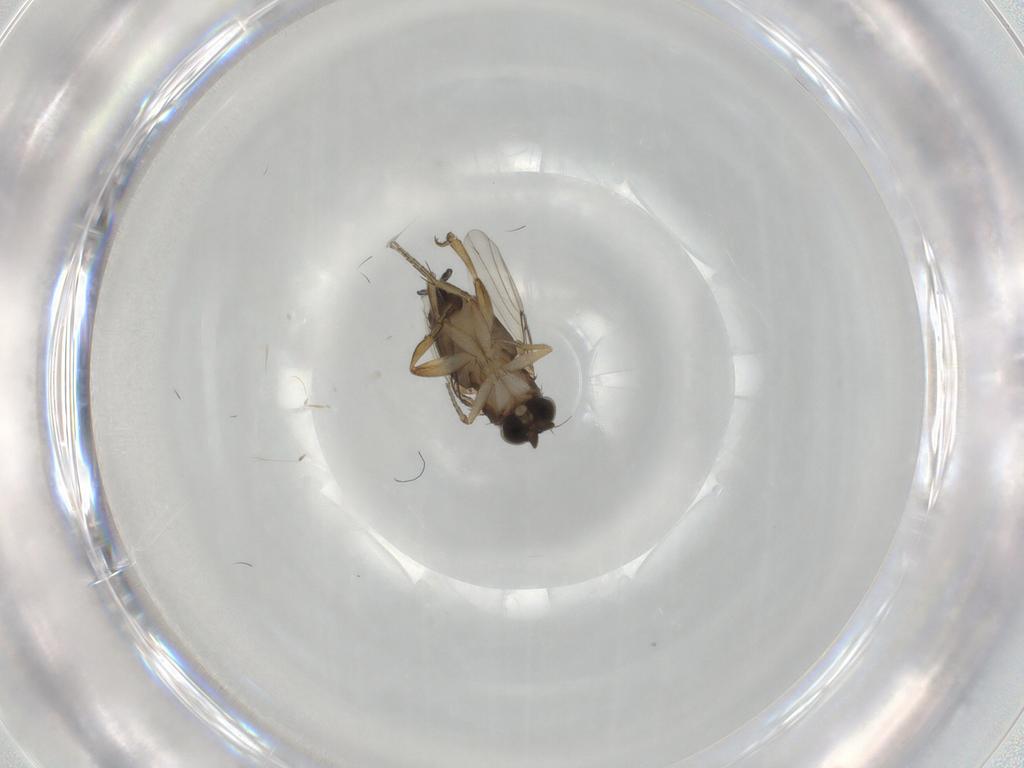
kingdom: Animalia
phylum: Arthropoda
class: Insecta
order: Diptera
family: Phoridae
